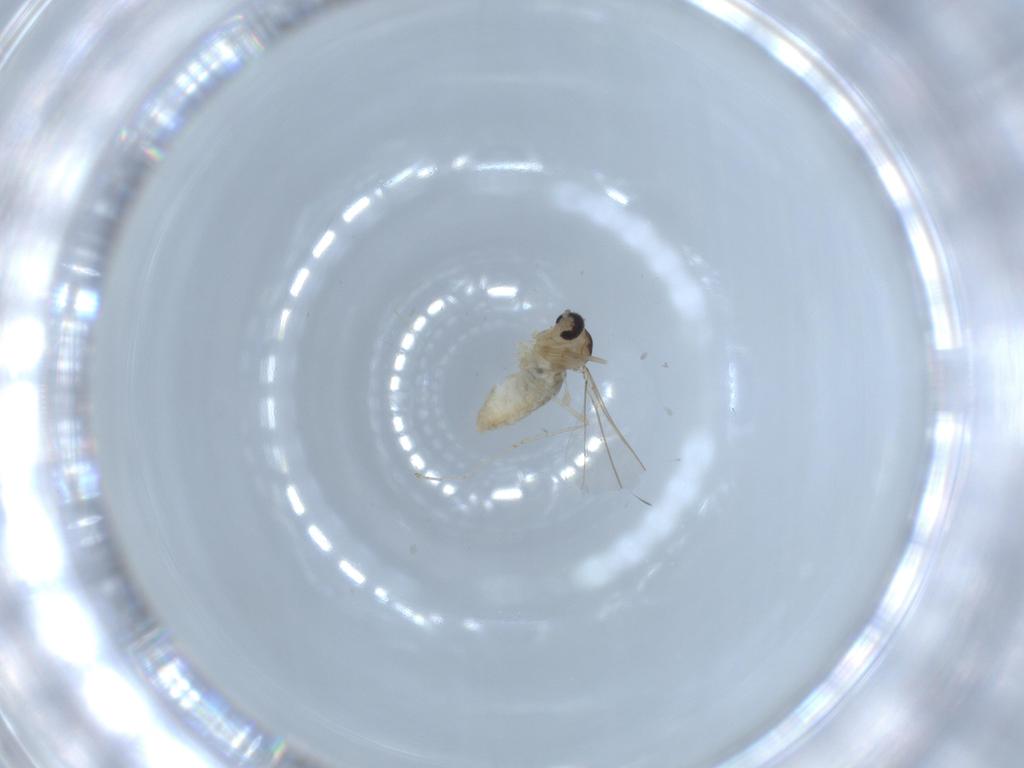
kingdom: Animalia
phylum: Arthropoda
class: Insecta
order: Diptera
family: Cecidomyiidae
